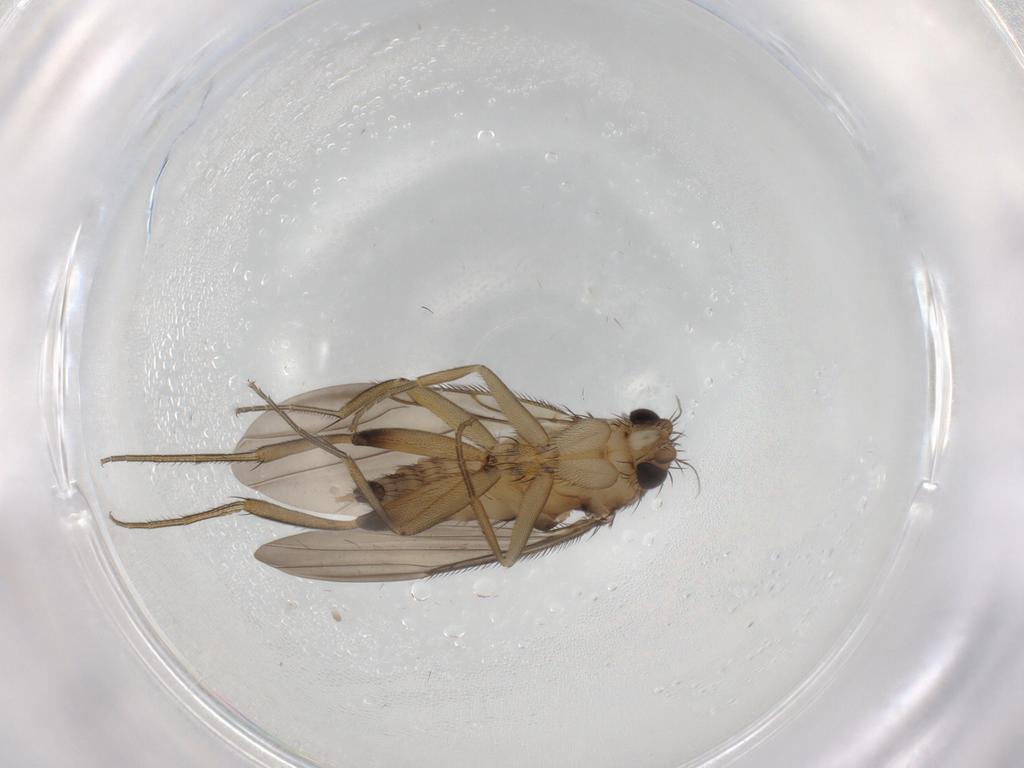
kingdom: Animalia
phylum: Arthropoda
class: Insecta
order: Diptera
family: Phoridae
